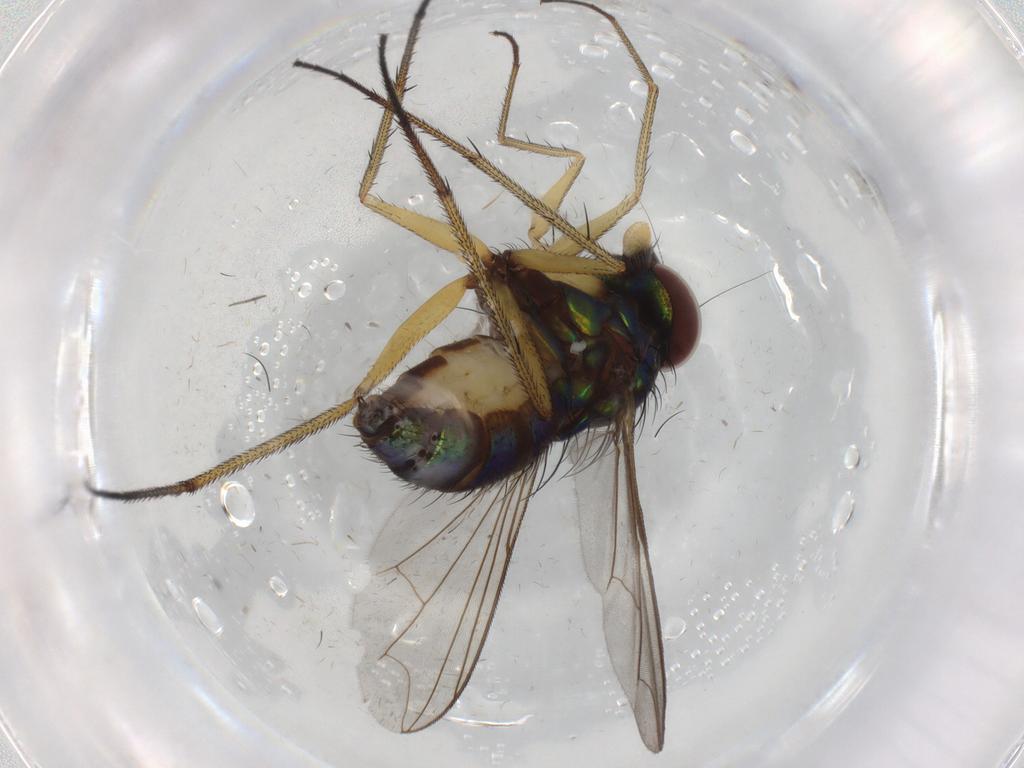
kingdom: Animalia
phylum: Arthropoda
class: Insecta
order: Diptera
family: Dolichopodidae
